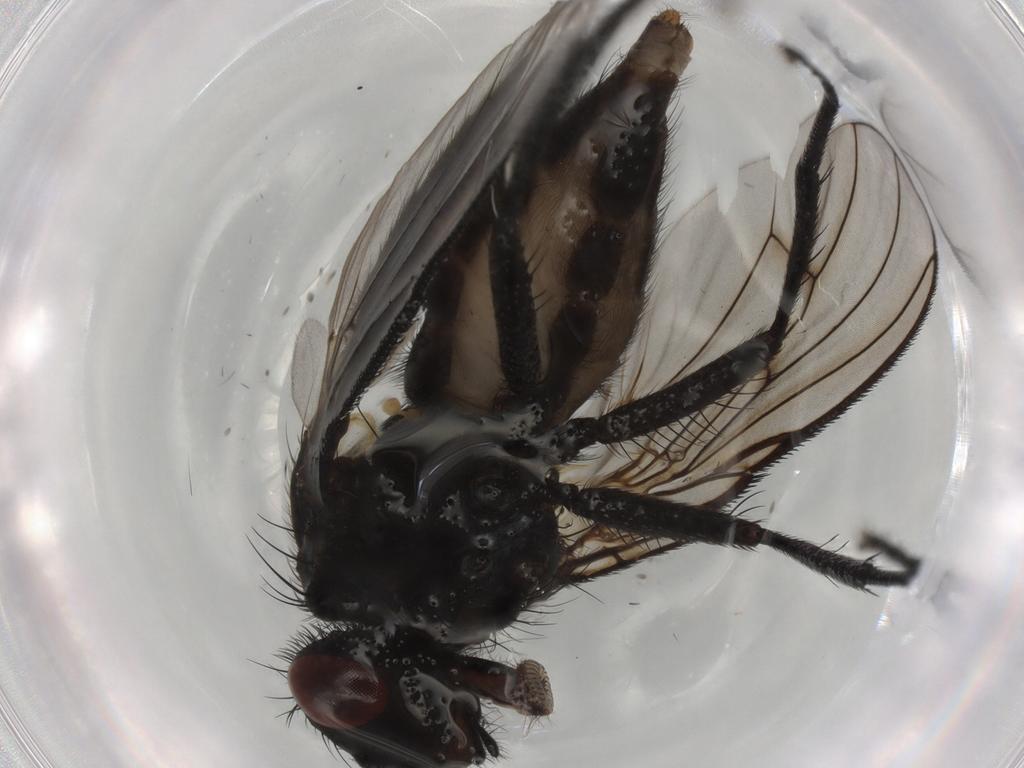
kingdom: Animalia
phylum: Arthropoda
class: Insecta
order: Diptera
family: Muscidae
